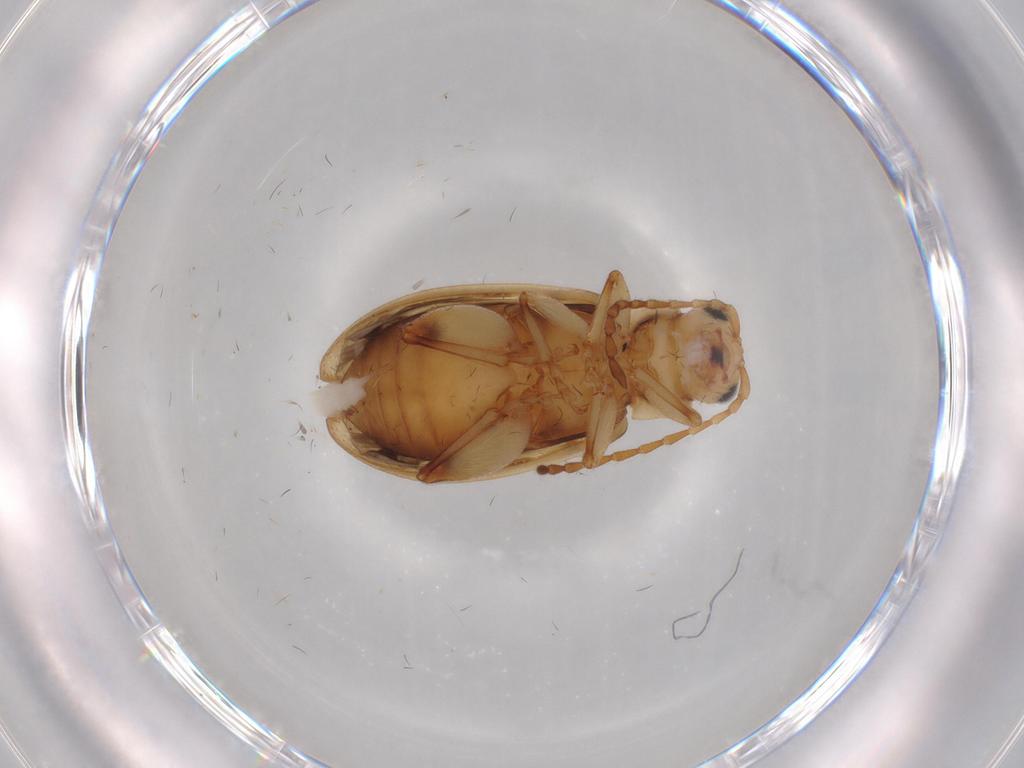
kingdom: Animalia
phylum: Arthropoda
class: Insecta
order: Coleoptera
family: Chrysomelidae
